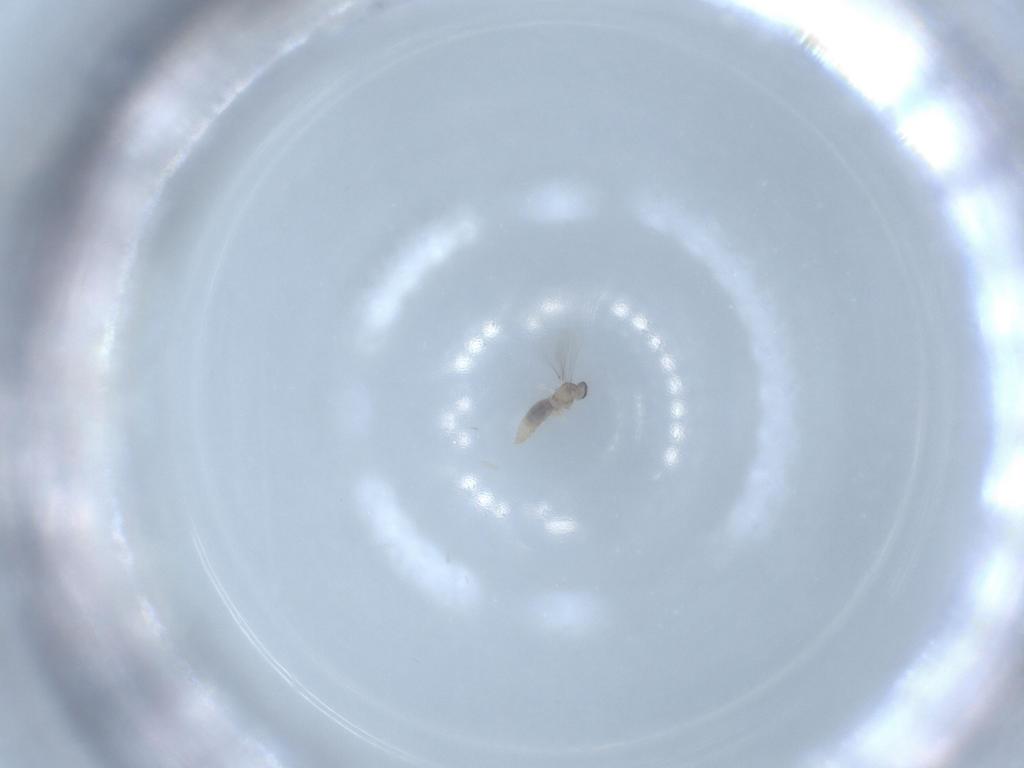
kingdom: Animalia
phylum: Arthropoda
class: Insecta
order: Diptera
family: Cecidomyiidae
